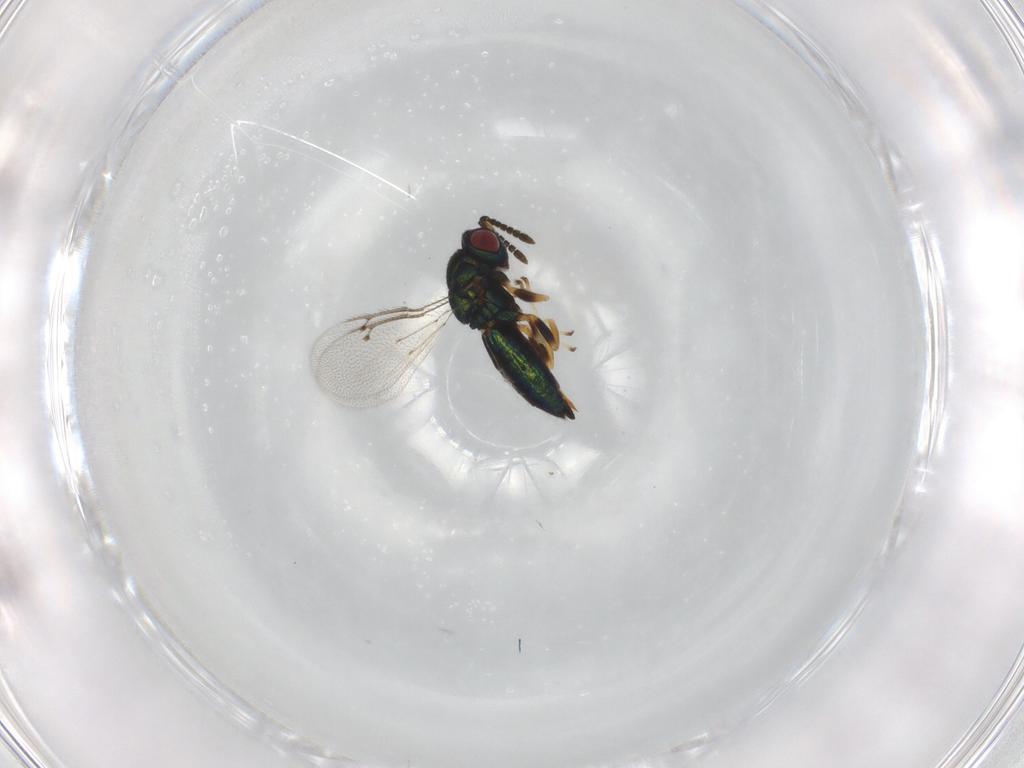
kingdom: Animalia
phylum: Arthropoda
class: Insecta
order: Hymenoptera
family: Pteromalidae
